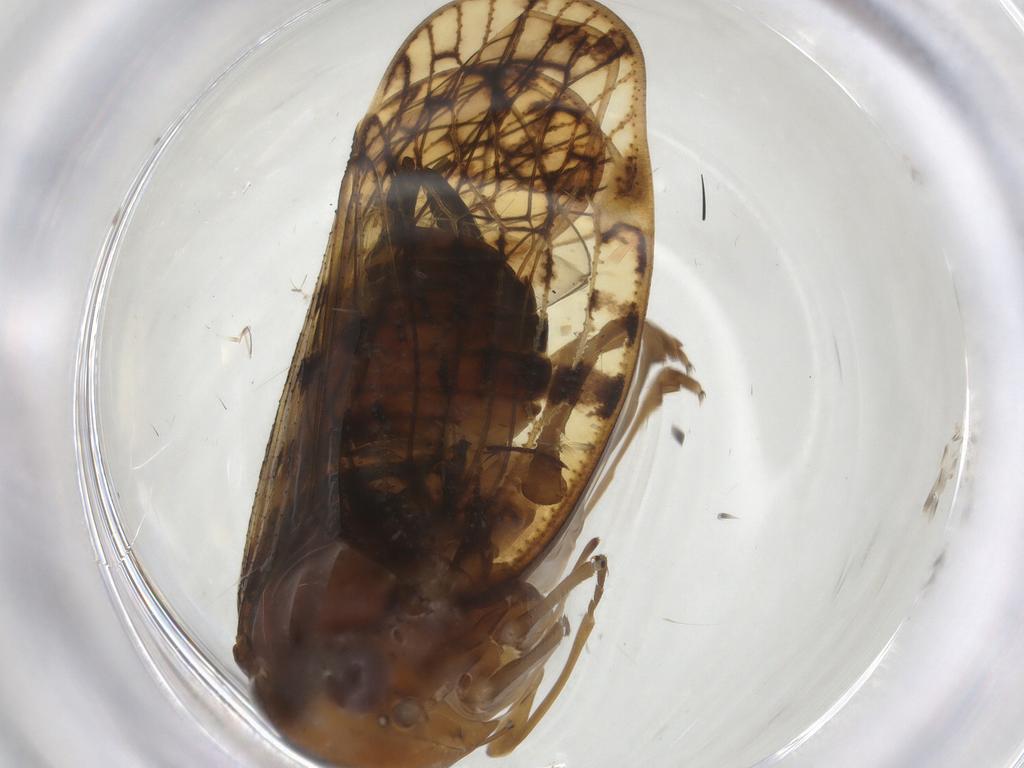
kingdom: Animalia
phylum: Arthropoda
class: Insecta
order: Hemiptera
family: Cixiidae
